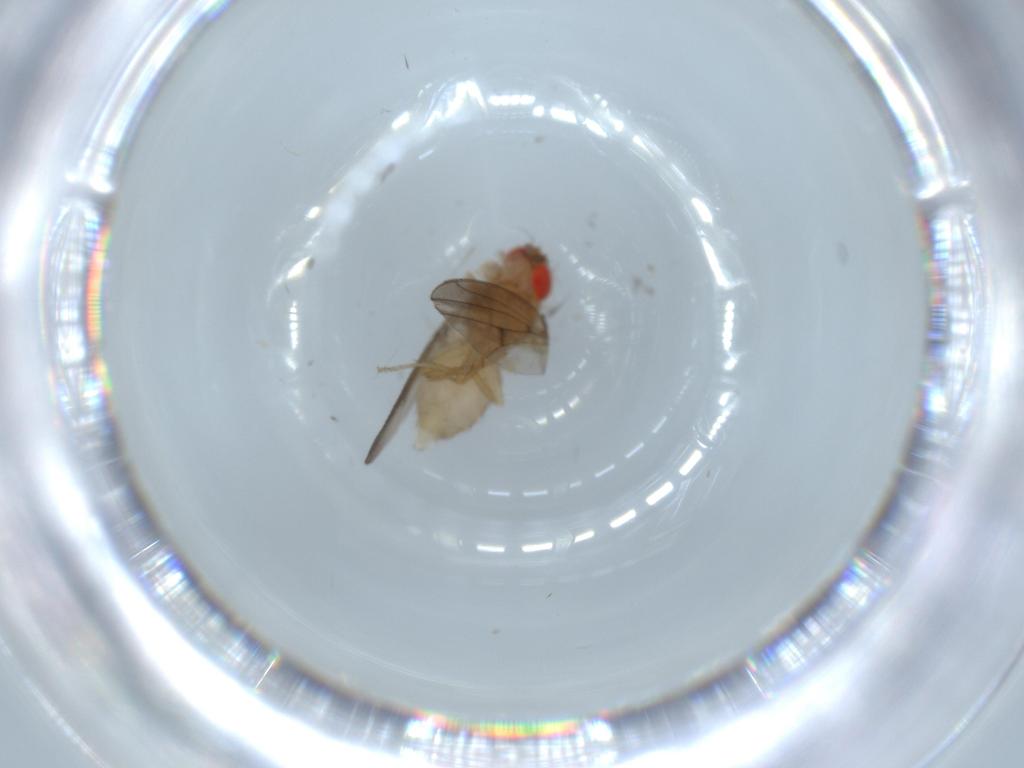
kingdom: Animalia
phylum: Arthropoda
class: Insecta
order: Diptera
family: Drosophilidae
